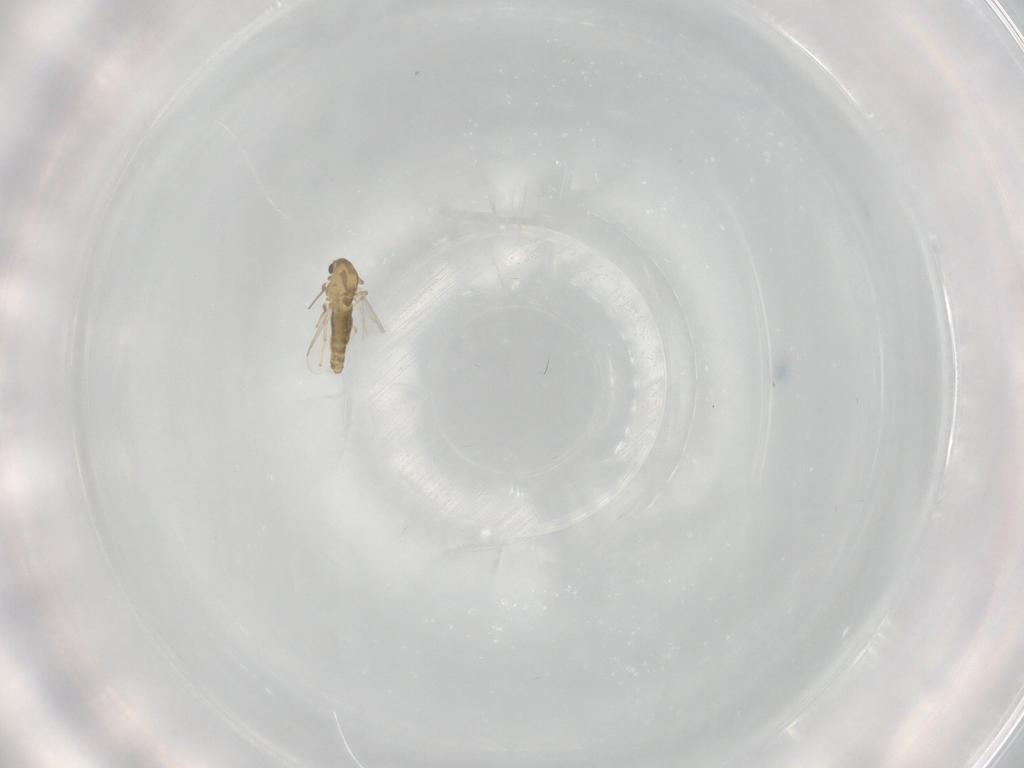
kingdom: Animalia
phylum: Arthropoda
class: Insecta
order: Diptera
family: Chironomidae
